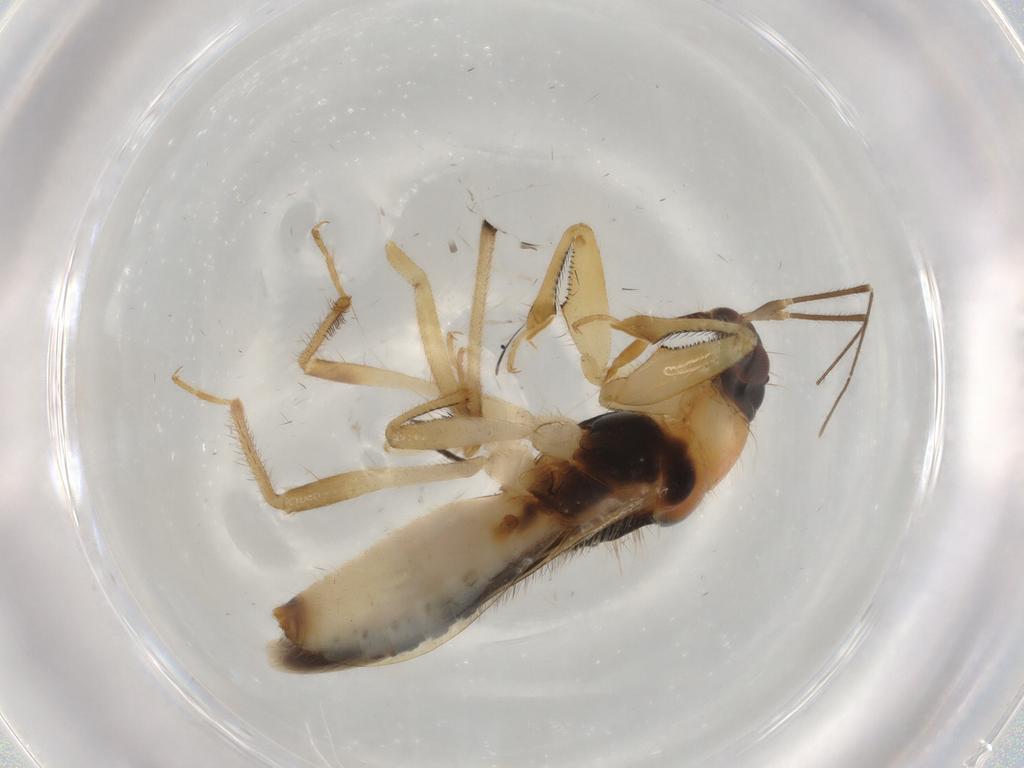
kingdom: Animalia
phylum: Arthropoda
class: Insecta
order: Hemiptera
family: Nabidae
